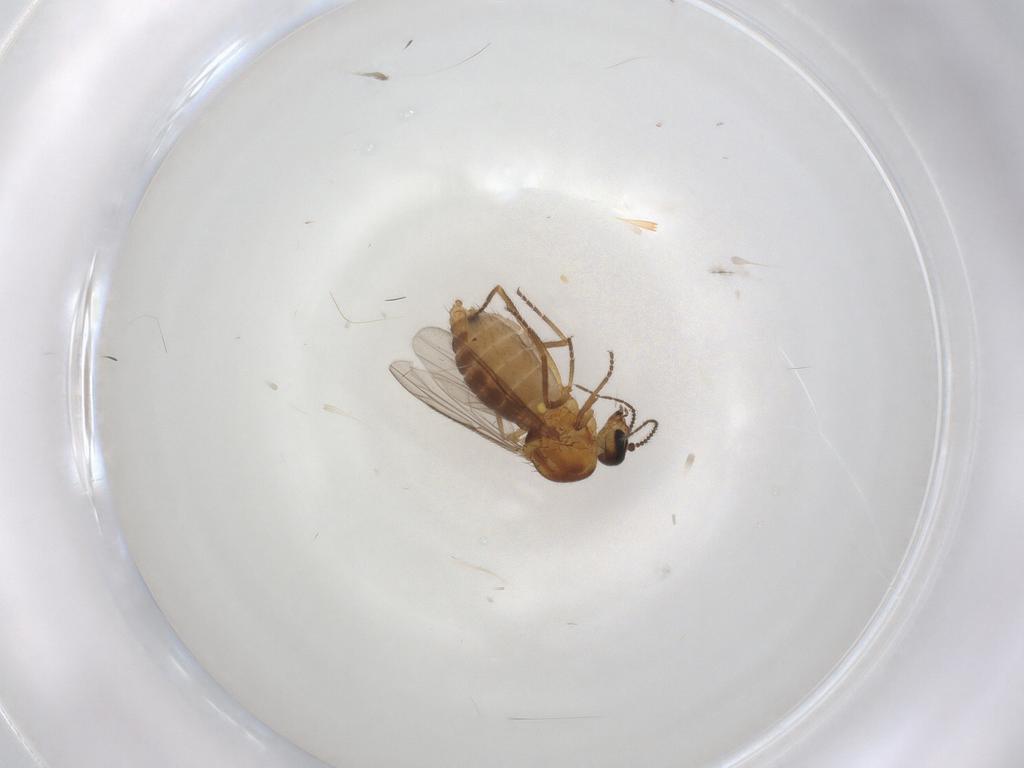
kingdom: Animalia
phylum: Arthropoda
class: Insecta
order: Diptera
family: Ceratopogonidae
